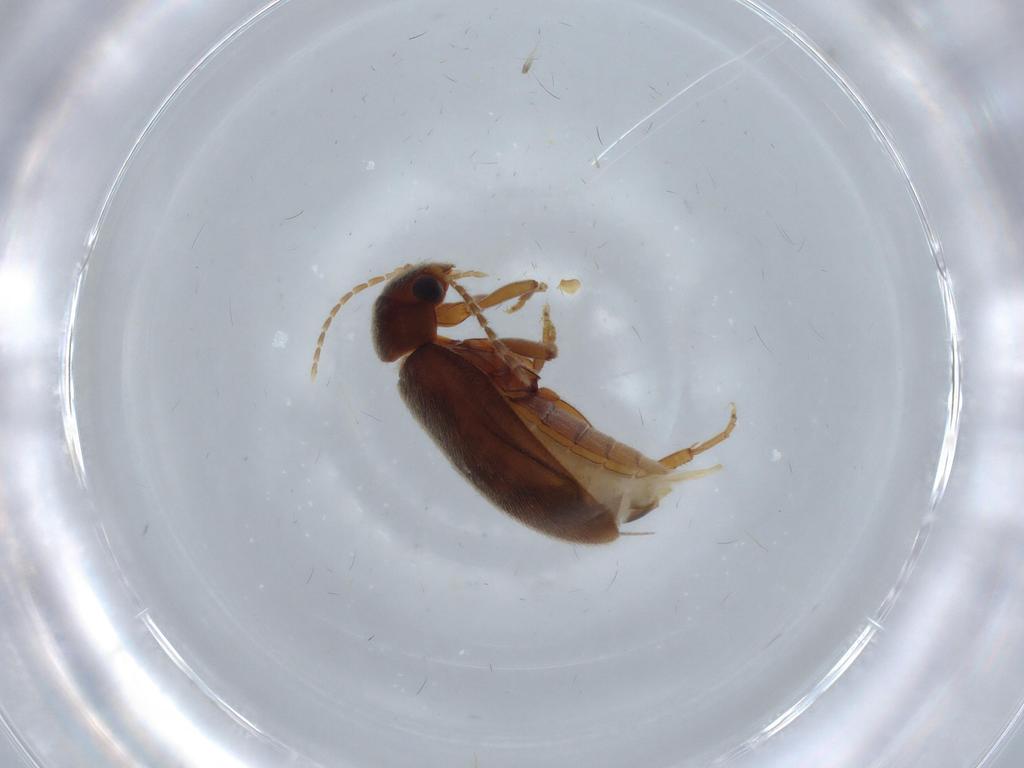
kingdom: Animalia
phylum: Arthropoda
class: Insecta
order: Coleoptera
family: Scirtidae
